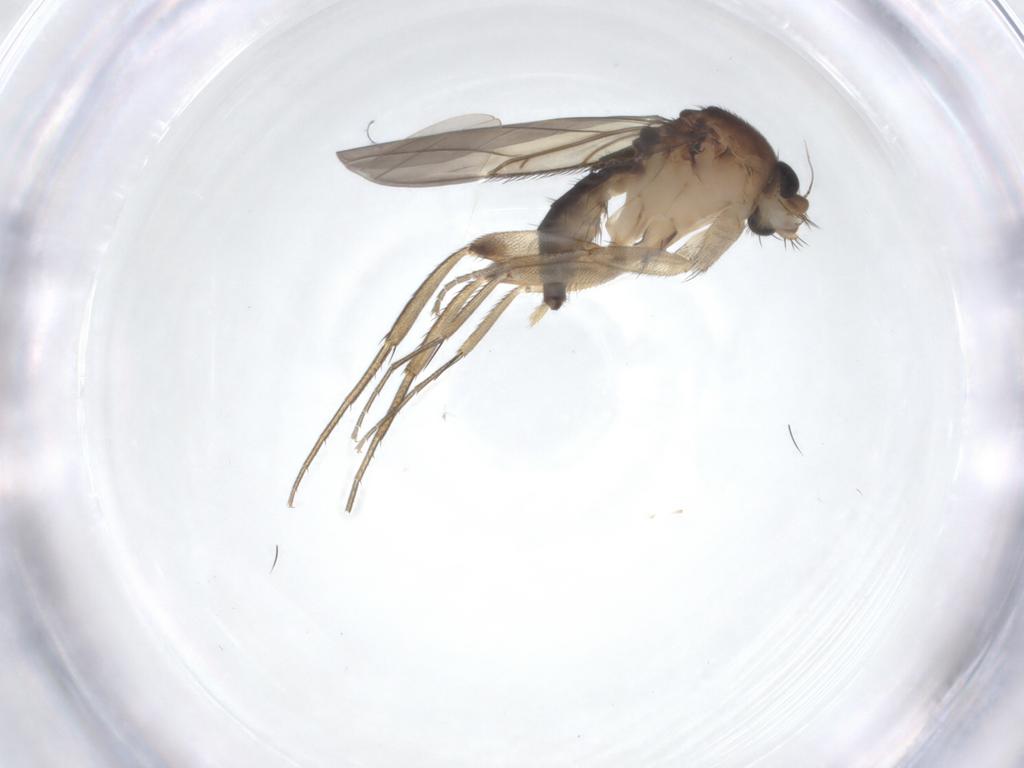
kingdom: Animalia
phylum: Arthropoda
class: Insecta
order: Diptera
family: Phoridae
